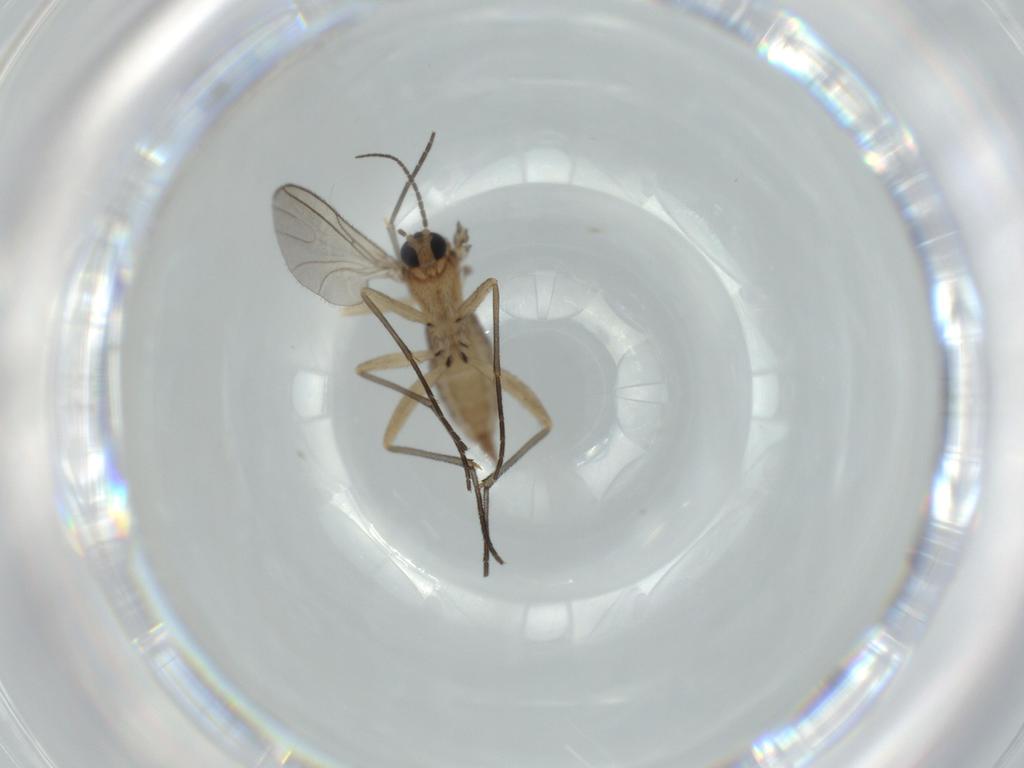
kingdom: Animalia
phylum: Arthropoda
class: Insecta
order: Diptera
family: Sciaridae
